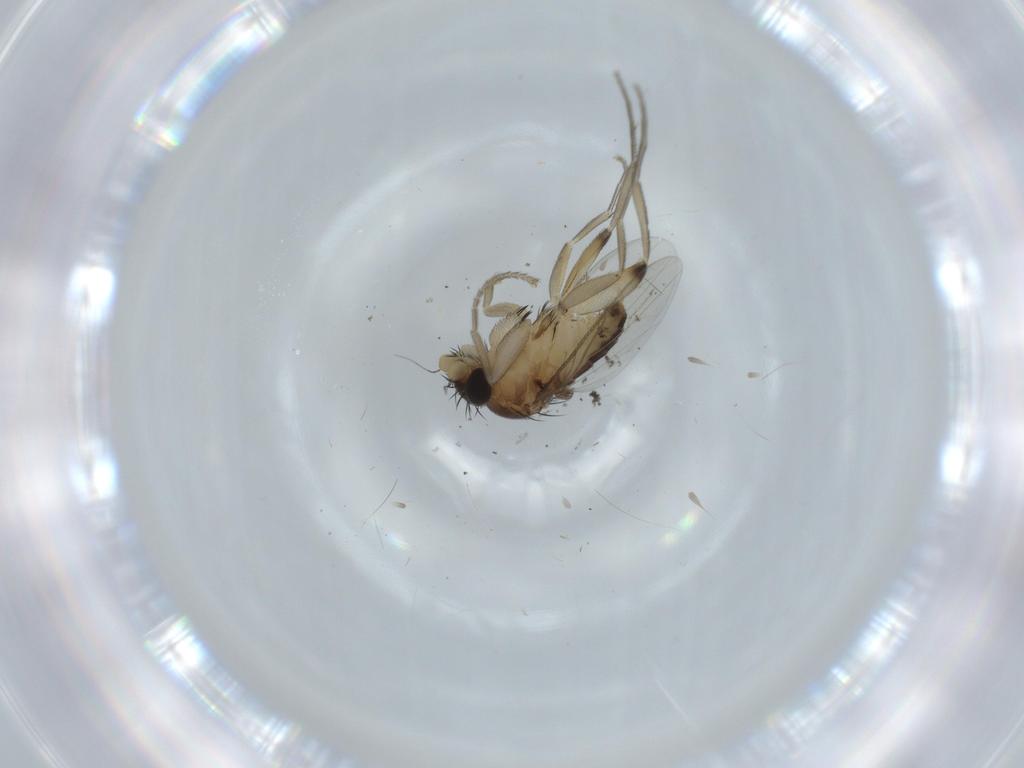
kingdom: Animalia
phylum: Arthropoda
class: Insecta
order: Diptera
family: Phoridae
